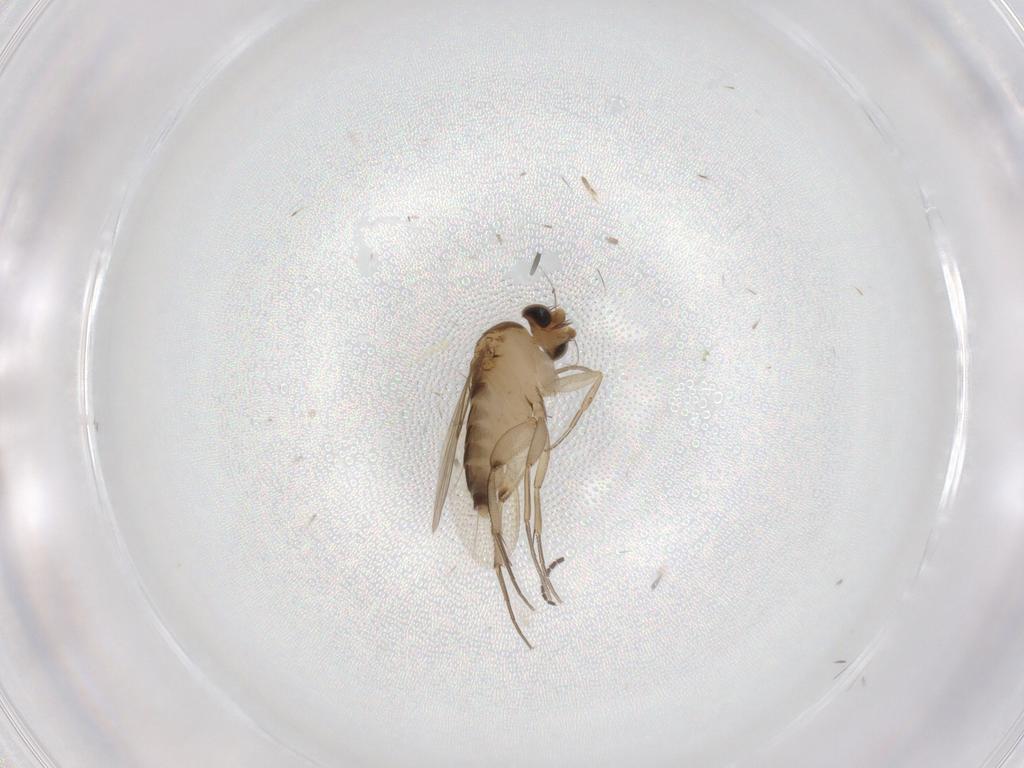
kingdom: Animalia
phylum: Arthropoda
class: Insecta
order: Diptera
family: Phoridae
